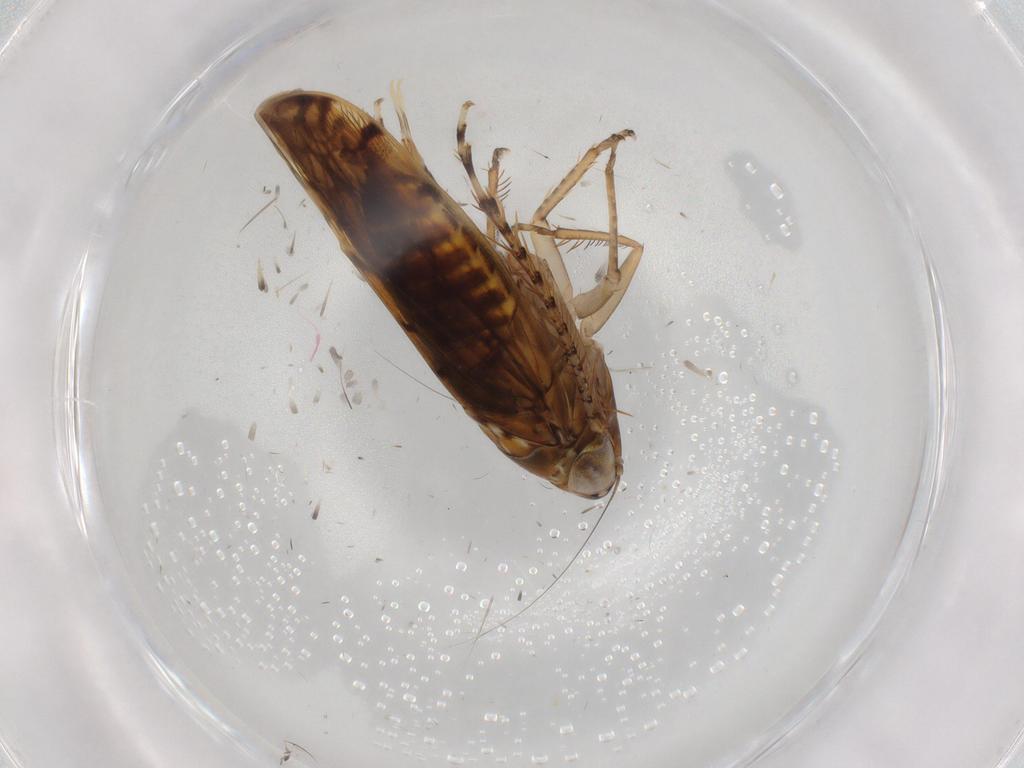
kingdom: Animalia
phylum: Arthropoda
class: Insecta
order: Hemiptera
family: Cicadellidae
